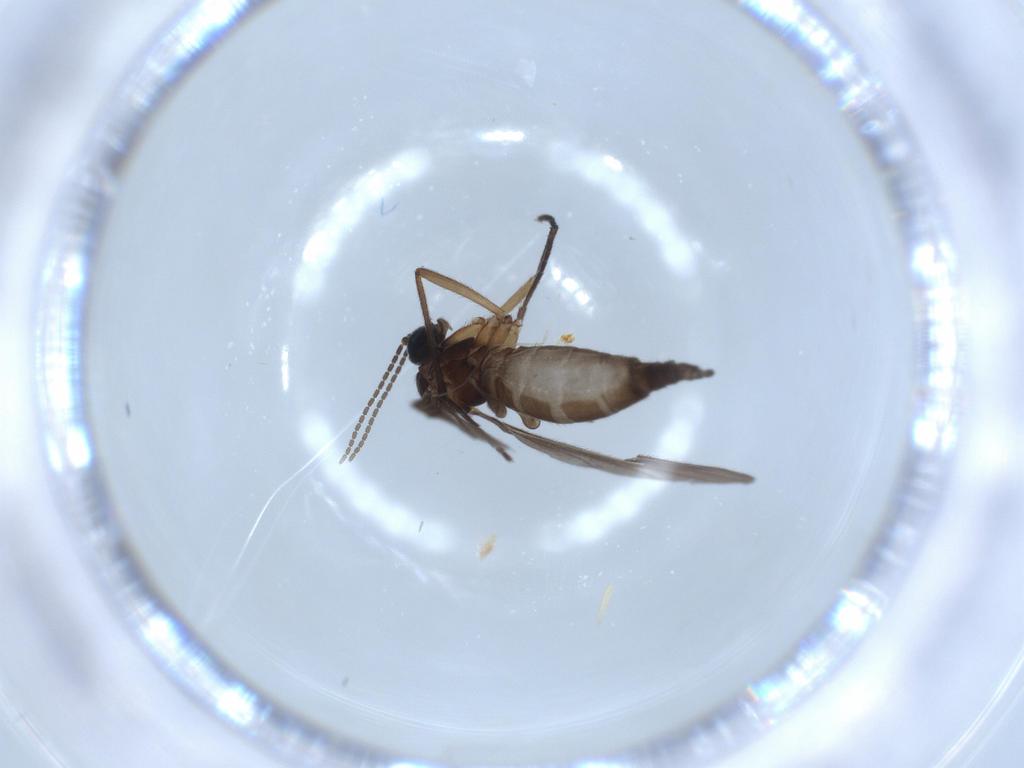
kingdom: Animalia
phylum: Arthropoda
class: Insecta
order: Diptera
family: Sciaridae
